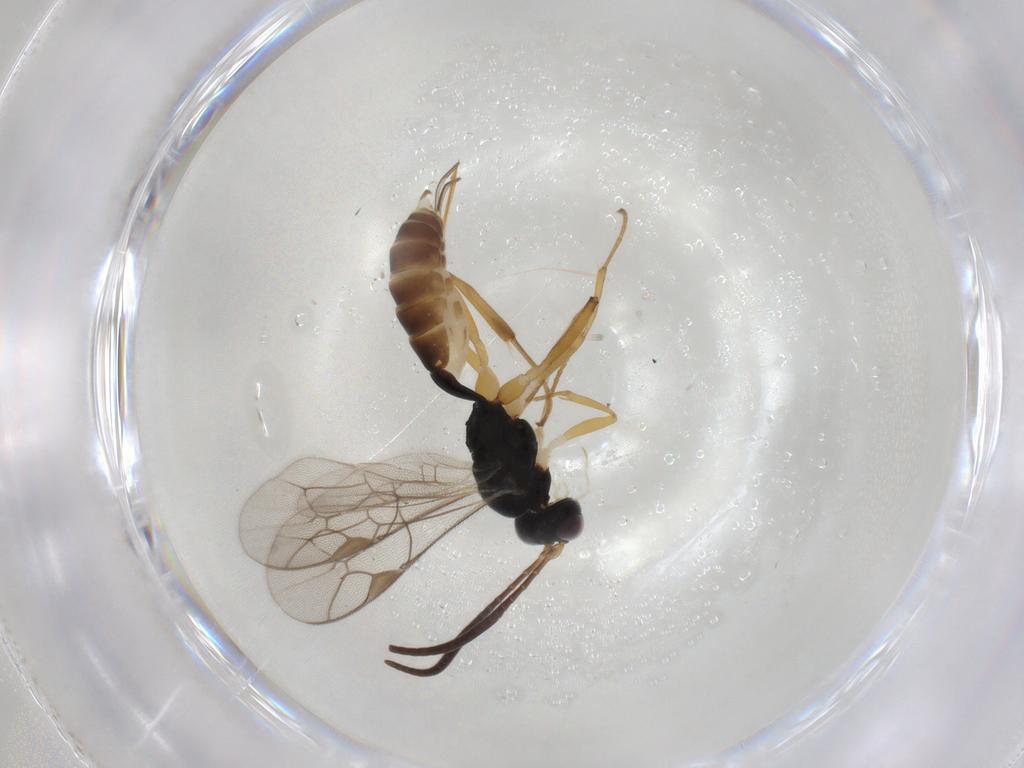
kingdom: Animalia
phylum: Arthropoda
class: Insecta
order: Hymenoptera
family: Ichneumonidae
